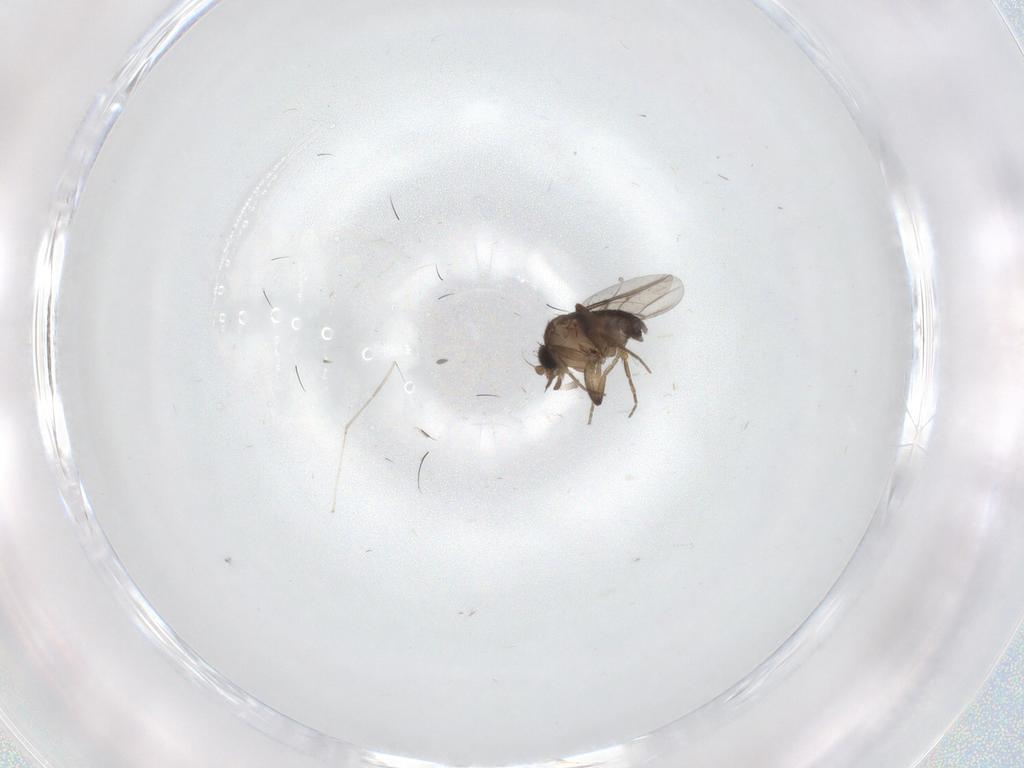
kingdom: Animalia
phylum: Arthropoda
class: Insecta
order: Diptera
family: Phoridae
